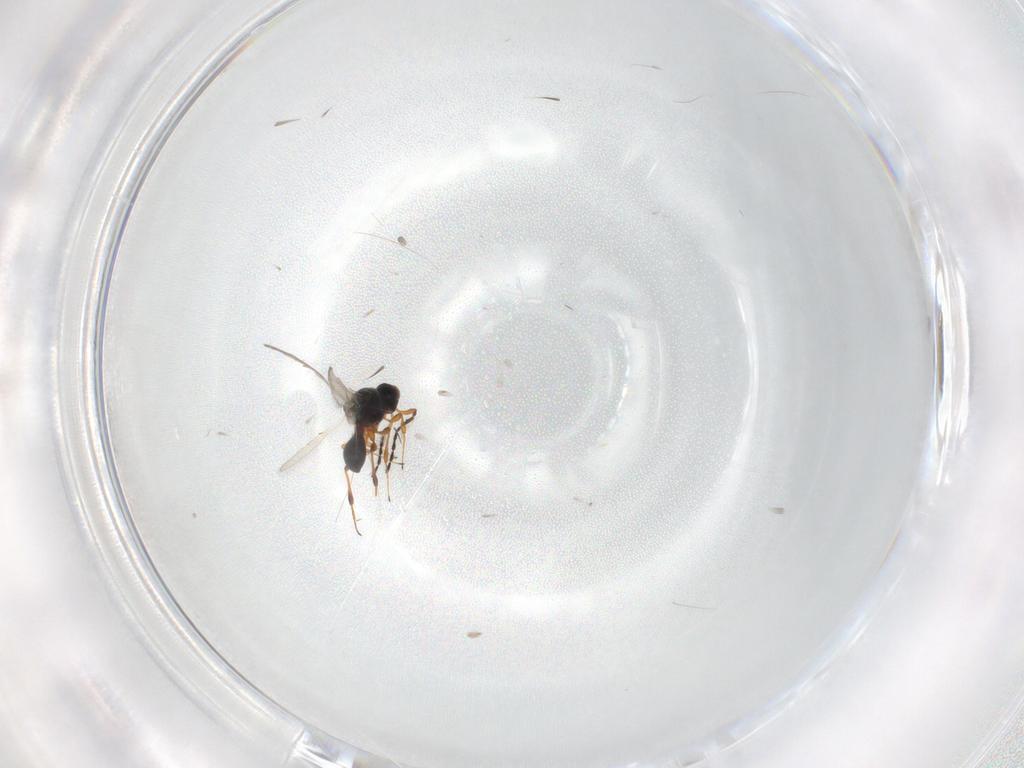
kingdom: Animalia
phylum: Arthropoda
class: Insecta
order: Hymenoptera
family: Platygastridae
